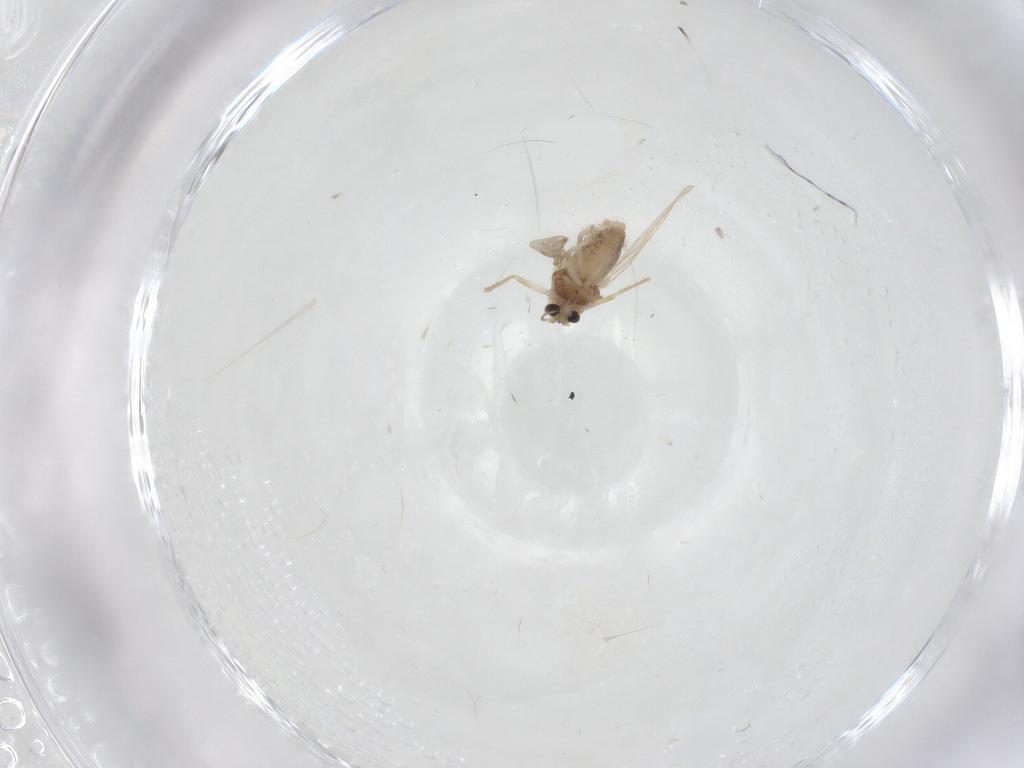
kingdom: Animalia
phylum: Arthropoda
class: Insecta
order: Diptera
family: Chironomidae
